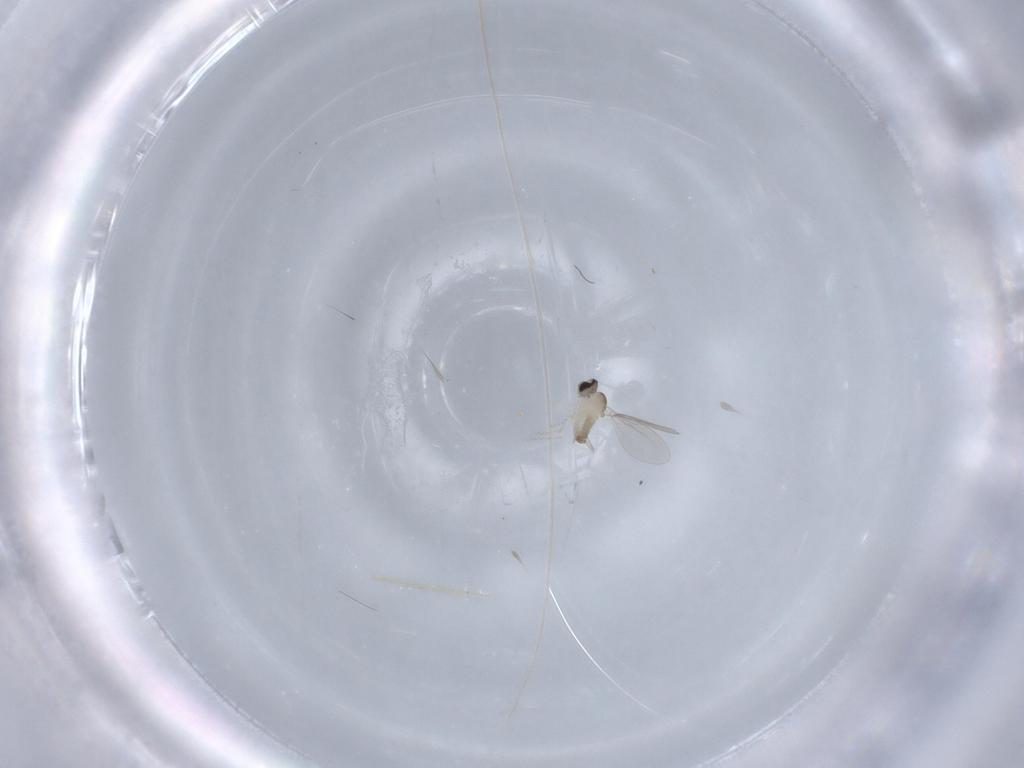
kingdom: Animalia
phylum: Arthropoda
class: Insecta
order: Diptera
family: Cecidomyiidae
